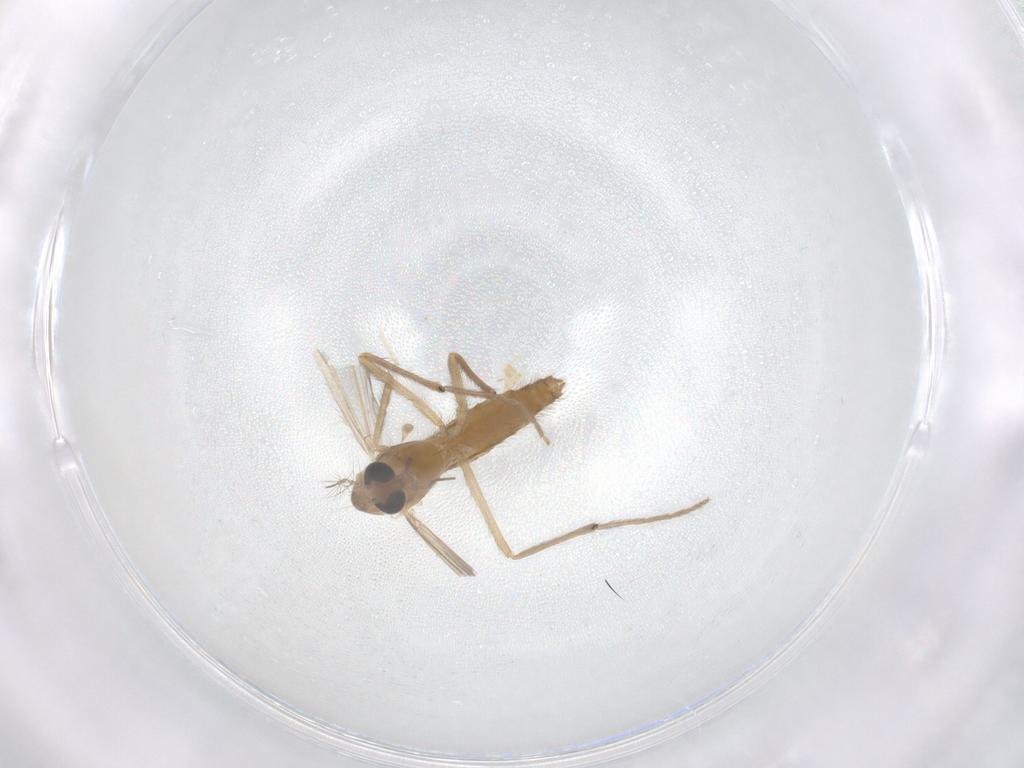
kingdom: Animalia
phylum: Arthropoda
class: Insecta
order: Diptera
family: Chironomidae
